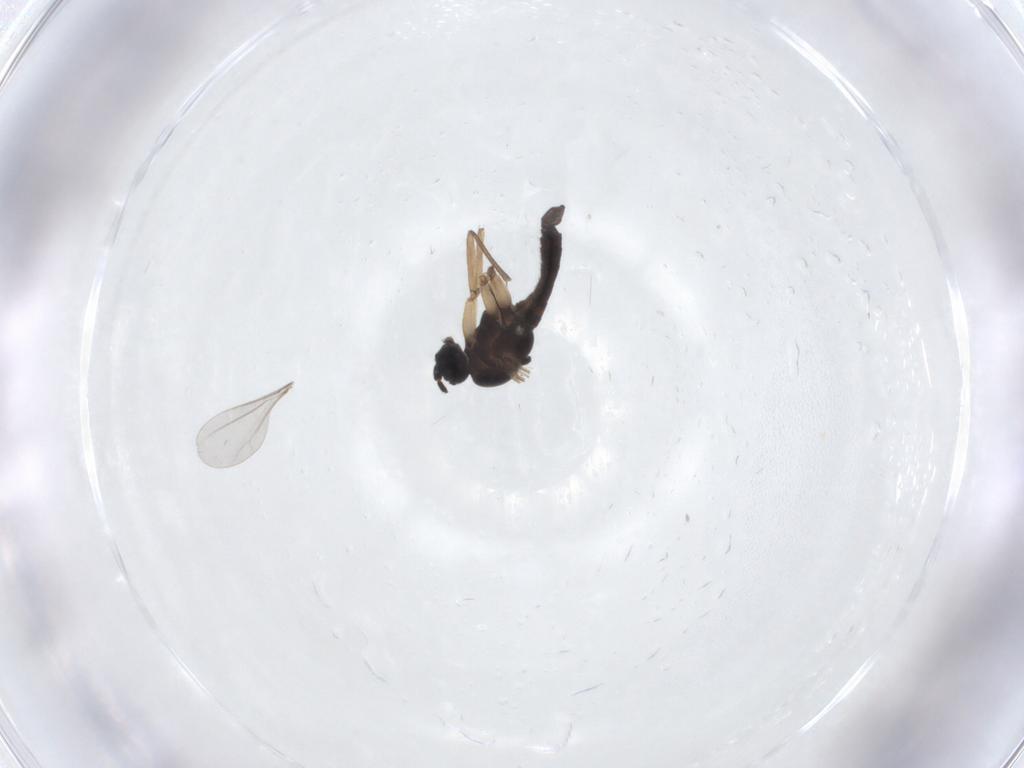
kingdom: Animalia
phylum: Arthropoda
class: Insecta
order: Diptera
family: Sciaridae
